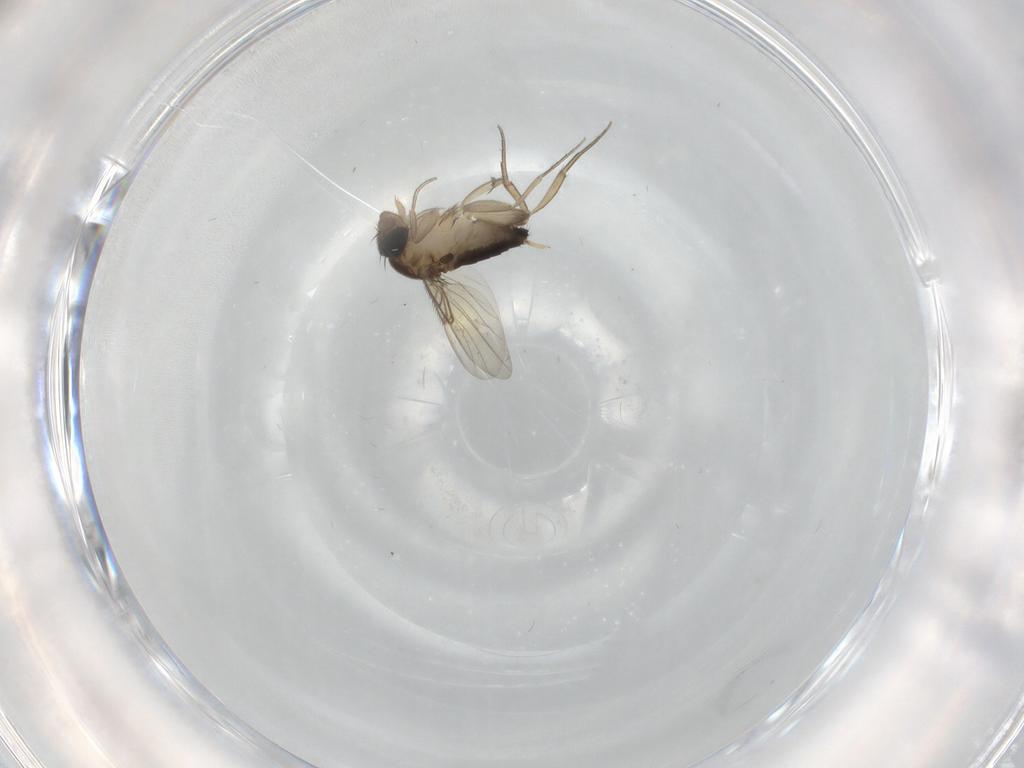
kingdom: Animalia
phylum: Arthropoda
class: Insecta
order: Diptera
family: Phoridae
